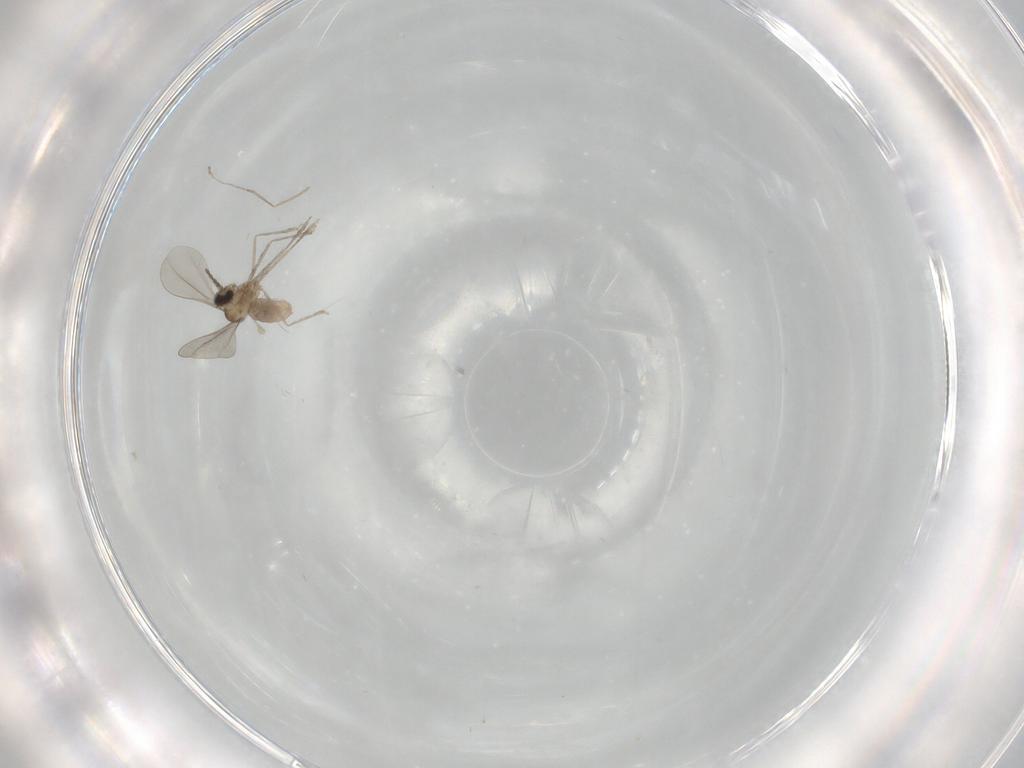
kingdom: Animalia
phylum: Arthropoda
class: Insecta
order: Diptera
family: Cecidomyiidae
